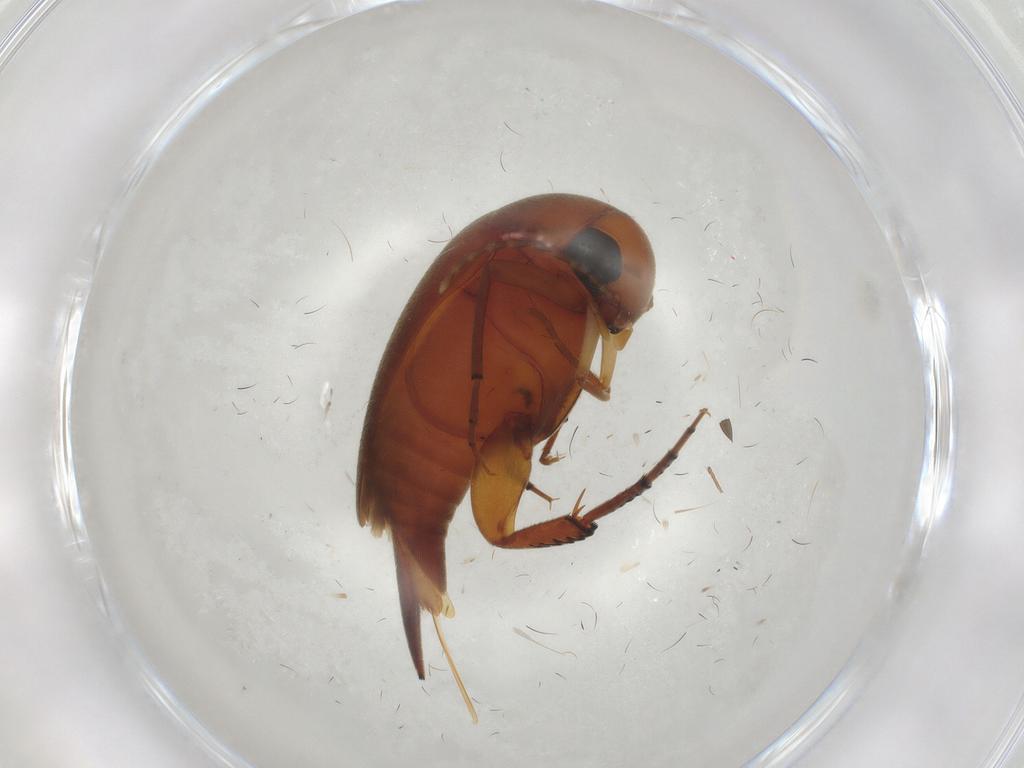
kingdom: Animalia
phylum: Arthropoda
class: Insecta
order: Coleoptera
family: Mordellidae
